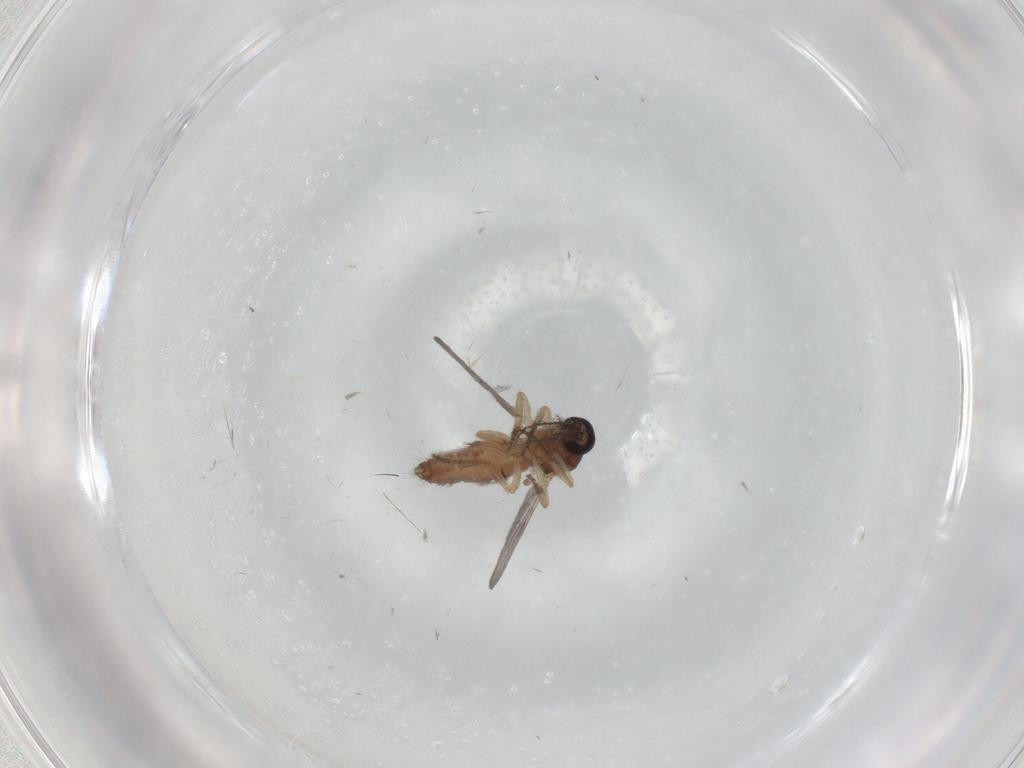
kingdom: Animalia
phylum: Arthropoda
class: Insecta
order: Diptera
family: Ceratopogonidae
